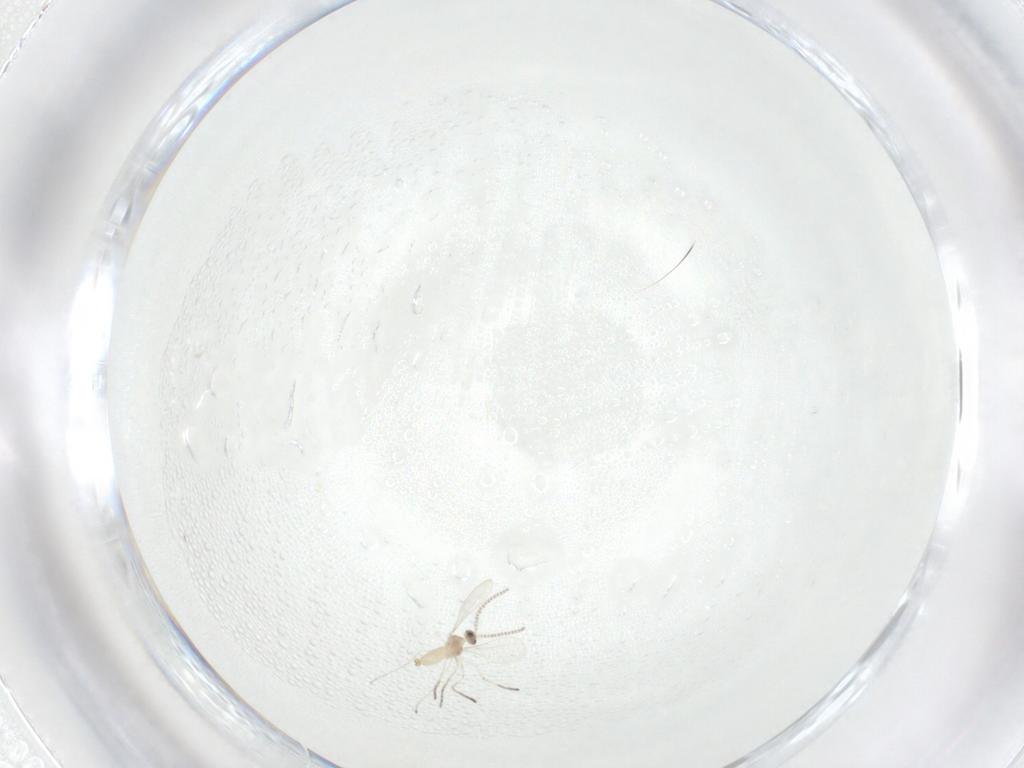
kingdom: Animalia
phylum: Arthropoda
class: Insecta
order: Diptera
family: Cecidomyiidae
